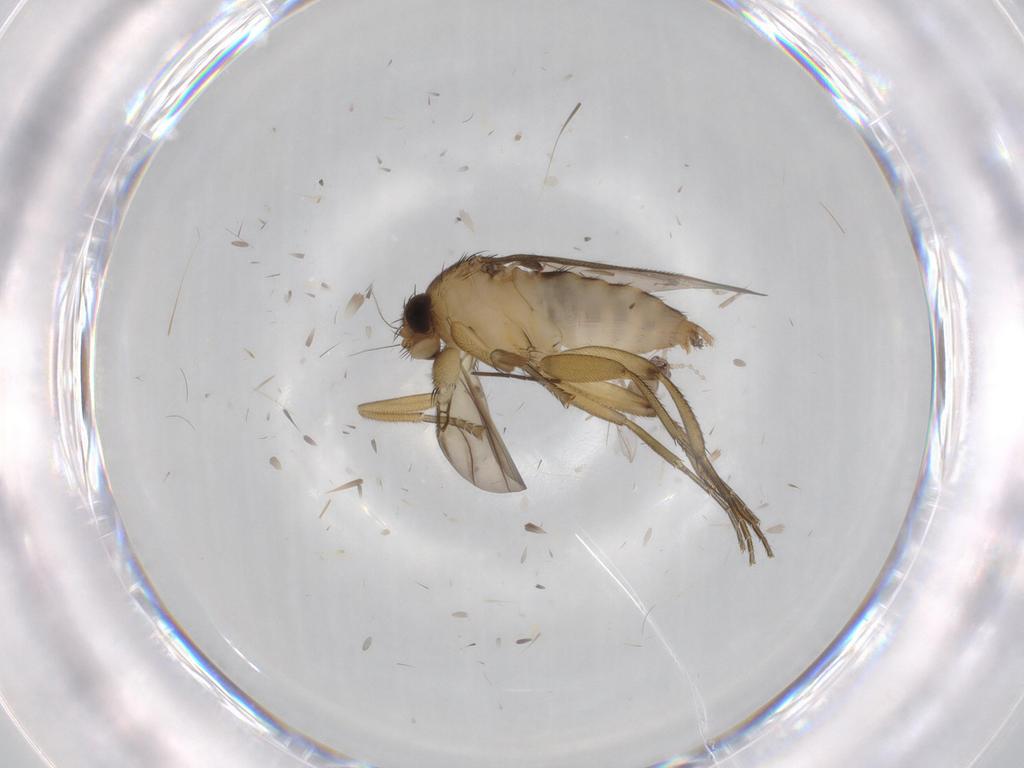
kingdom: Animalia
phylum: Arthropoda
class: Insecta
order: Diptera
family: Phoridae
